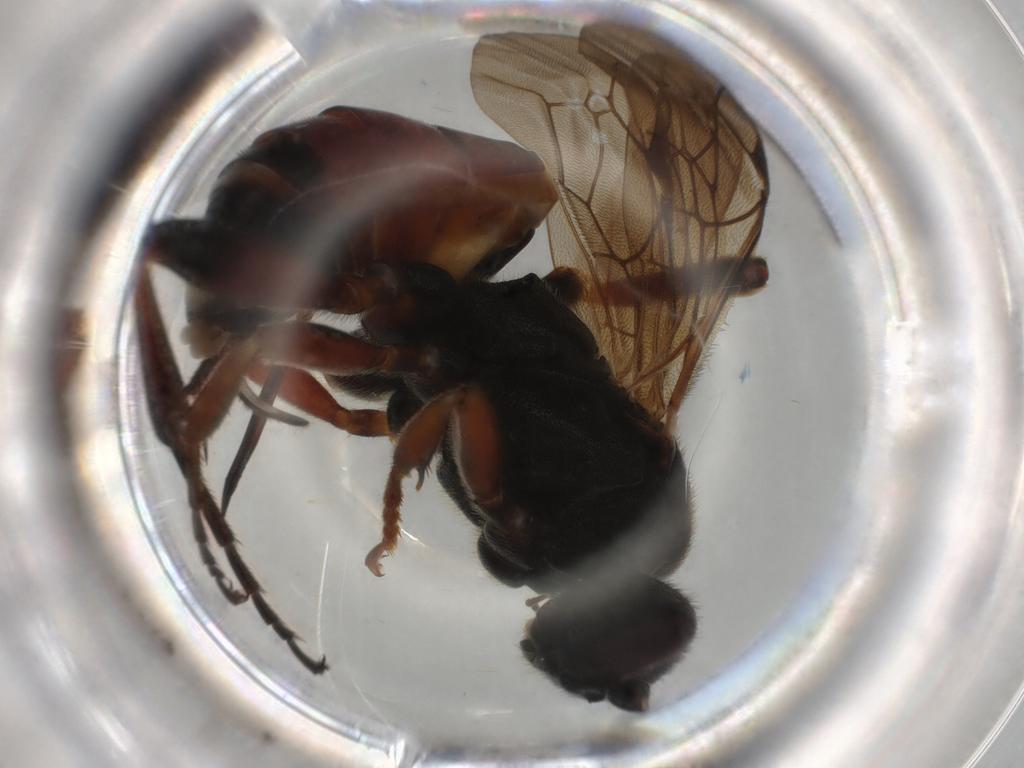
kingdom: Animalia
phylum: Arthropoda
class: Insecta
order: Hymenoptera
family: Ichneumonidae
